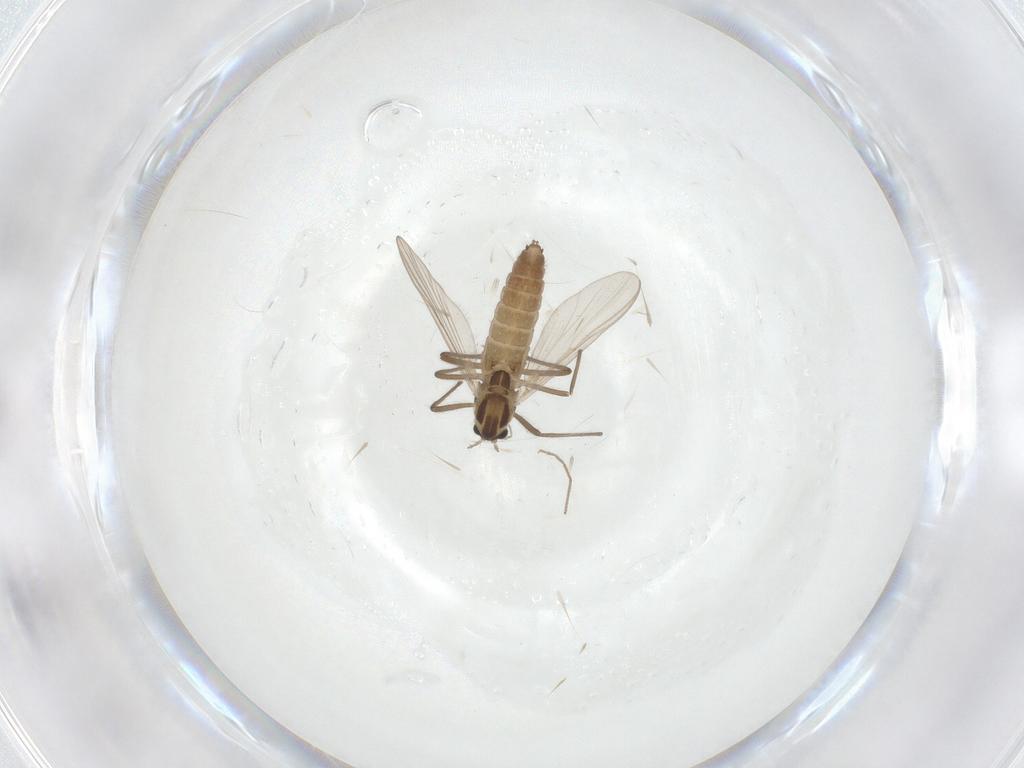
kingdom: Animalia
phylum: Arthropoda
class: Insecta
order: Diptera
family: Chironomidae
